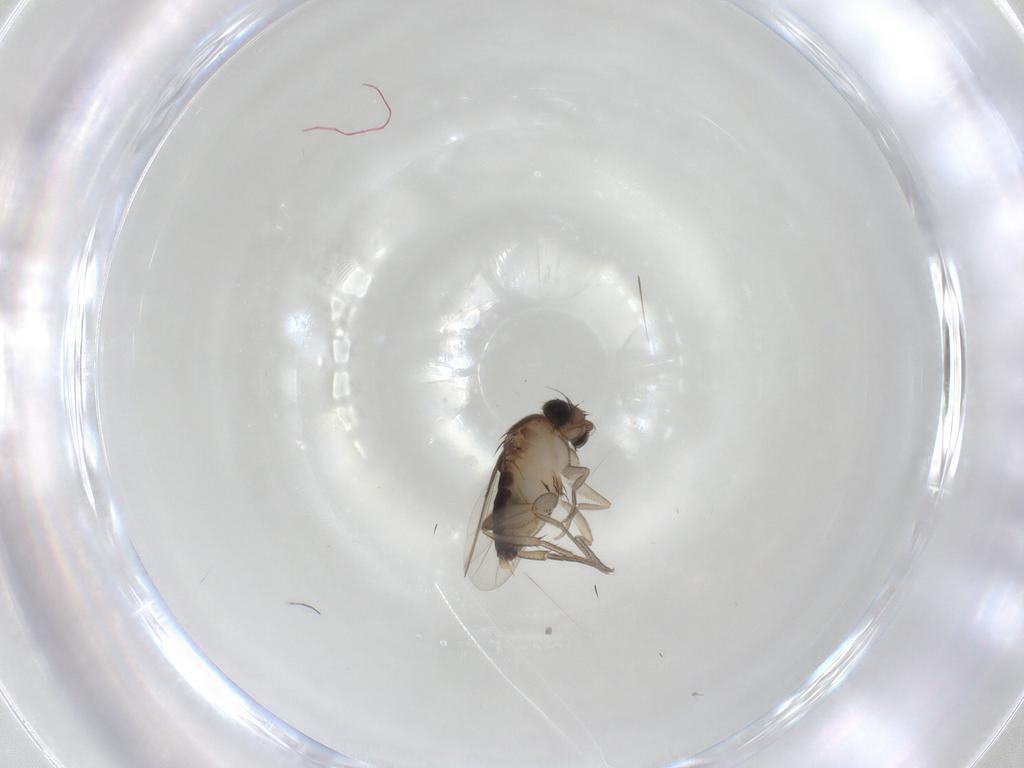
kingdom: Animalia
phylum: Arthropoda
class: Insecta
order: Diptera
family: Phoridae
